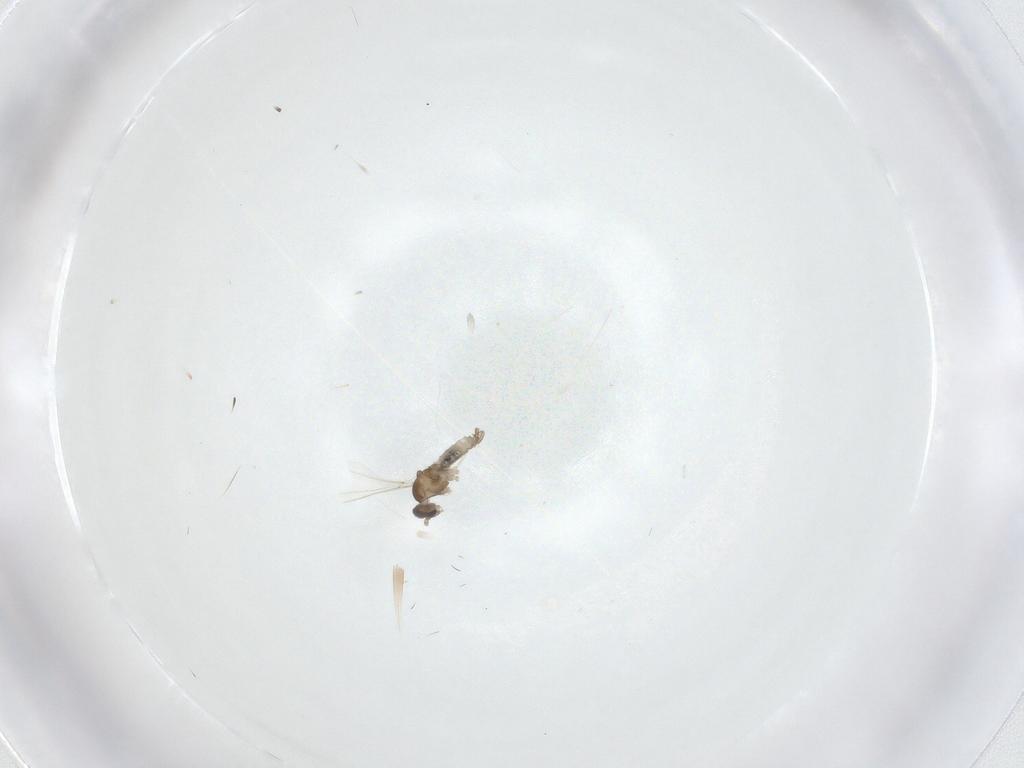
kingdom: Animalia
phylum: Arthropoda
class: Insecta
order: Diptera
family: Cecidomyiidae
